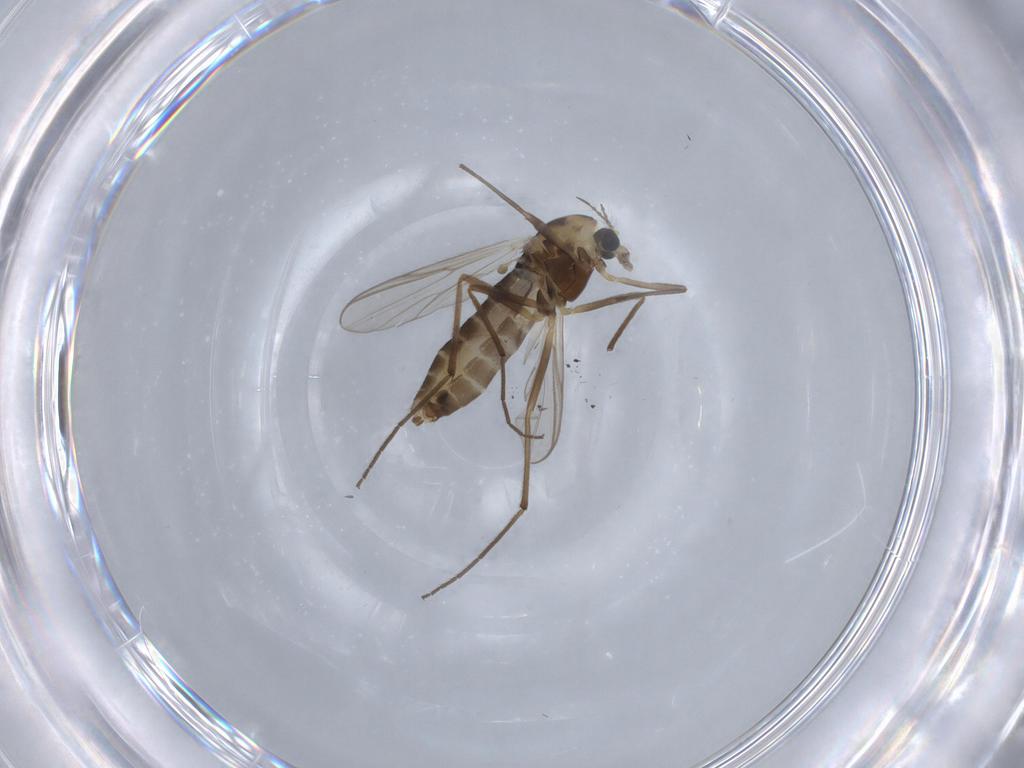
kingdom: Animalia
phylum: Arthropoda
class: Insecta
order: Diptera
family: Chironomidae
